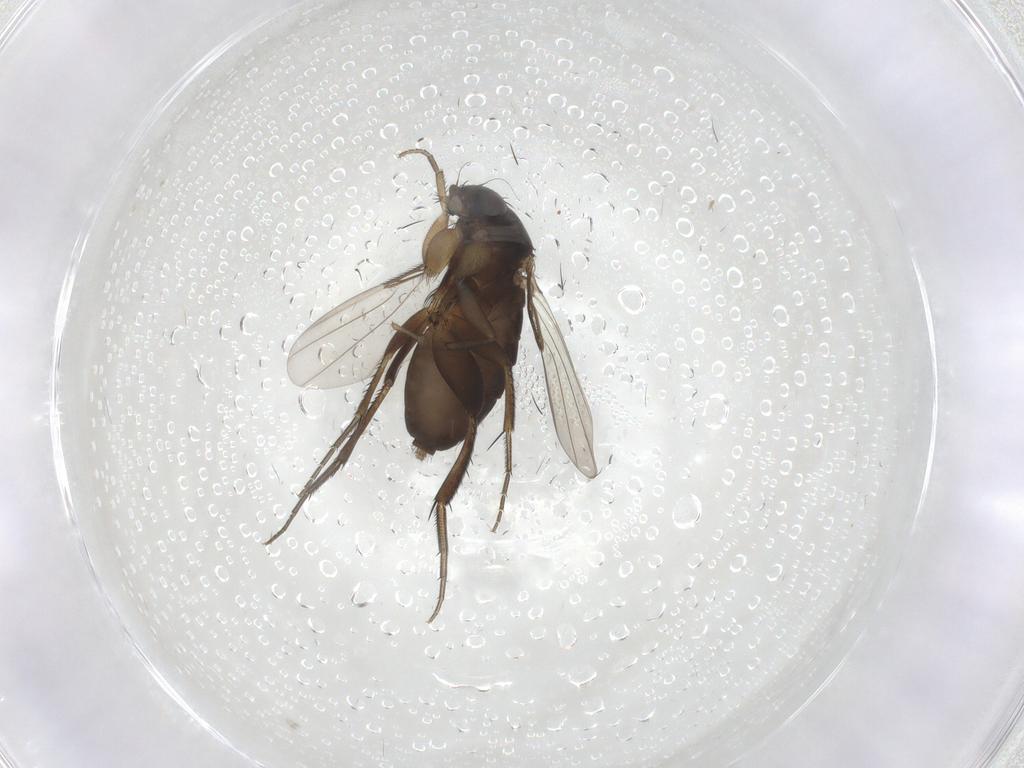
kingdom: Animalia
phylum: Arthropoda
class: Insecta
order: Diptera
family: Phoridae
